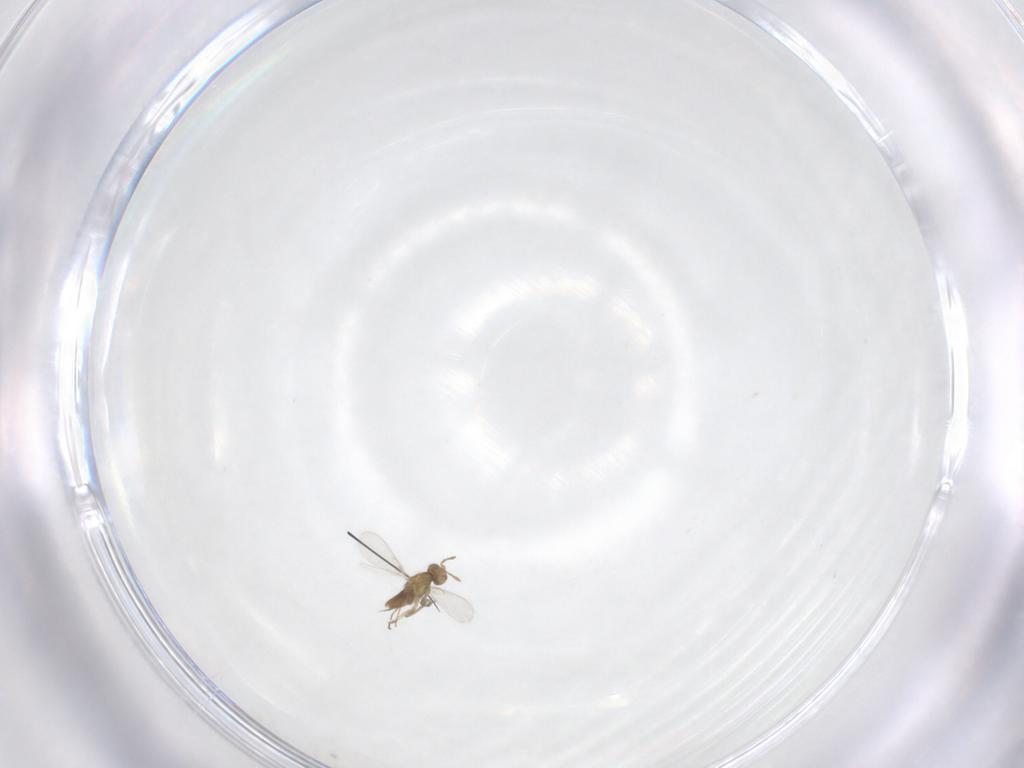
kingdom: Animalia
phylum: Arthropoda
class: Insecta
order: Hymenoptera
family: Aphelinidae
